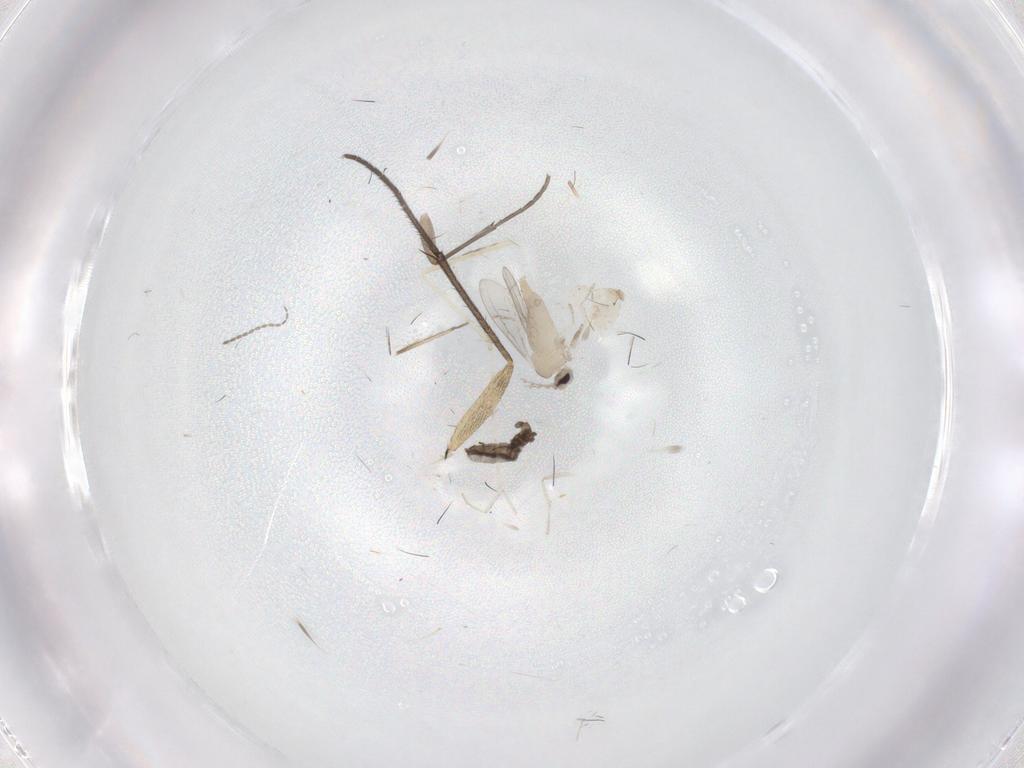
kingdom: Animalia
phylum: Arthropoda
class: Insecta
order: Diptera
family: Sciaridae
